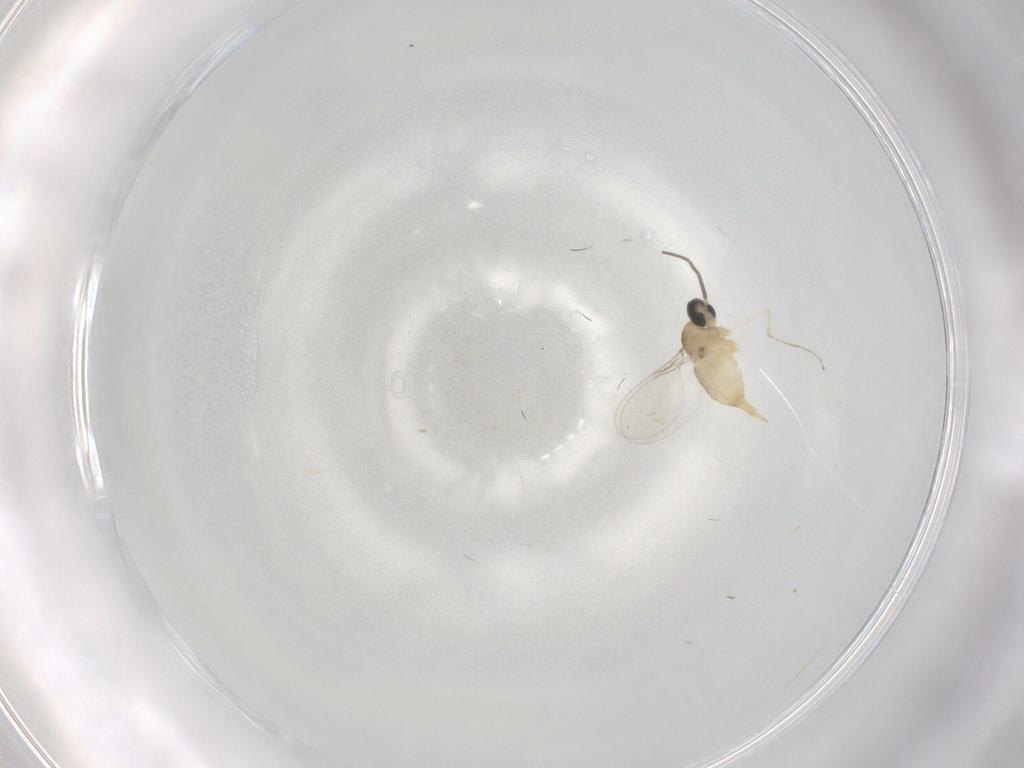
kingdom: Animalia
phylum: Arthropoda
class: Insecta
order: Diptera
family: Cecidomyiidae
